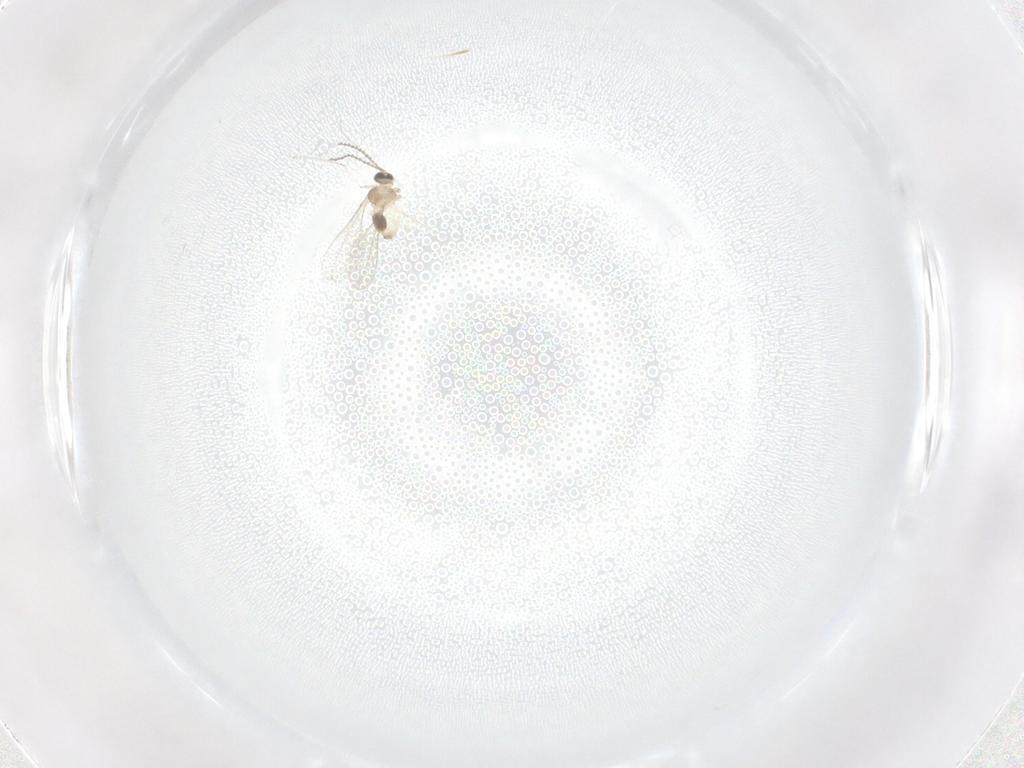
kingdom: Animalia
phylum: Arthropoda
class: Insecta
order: Diptera
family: Cecidomyiidae
